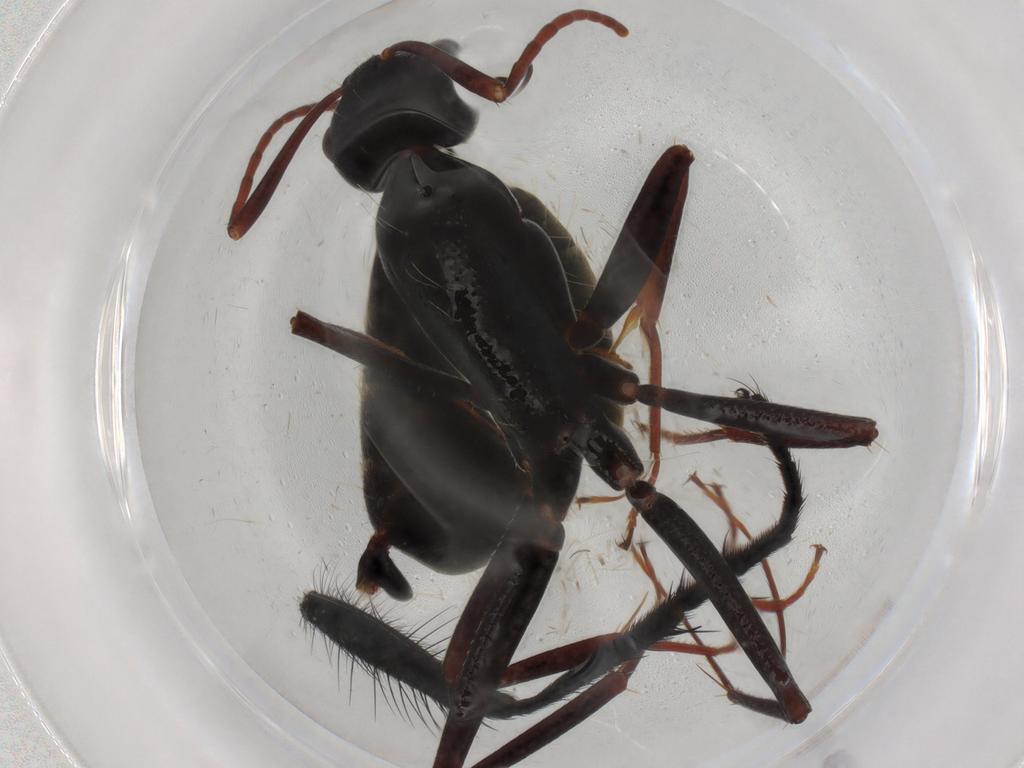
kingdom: Animalia
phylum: Arthropoda
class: Insecta
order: Hymenoptera
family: Formicidae
